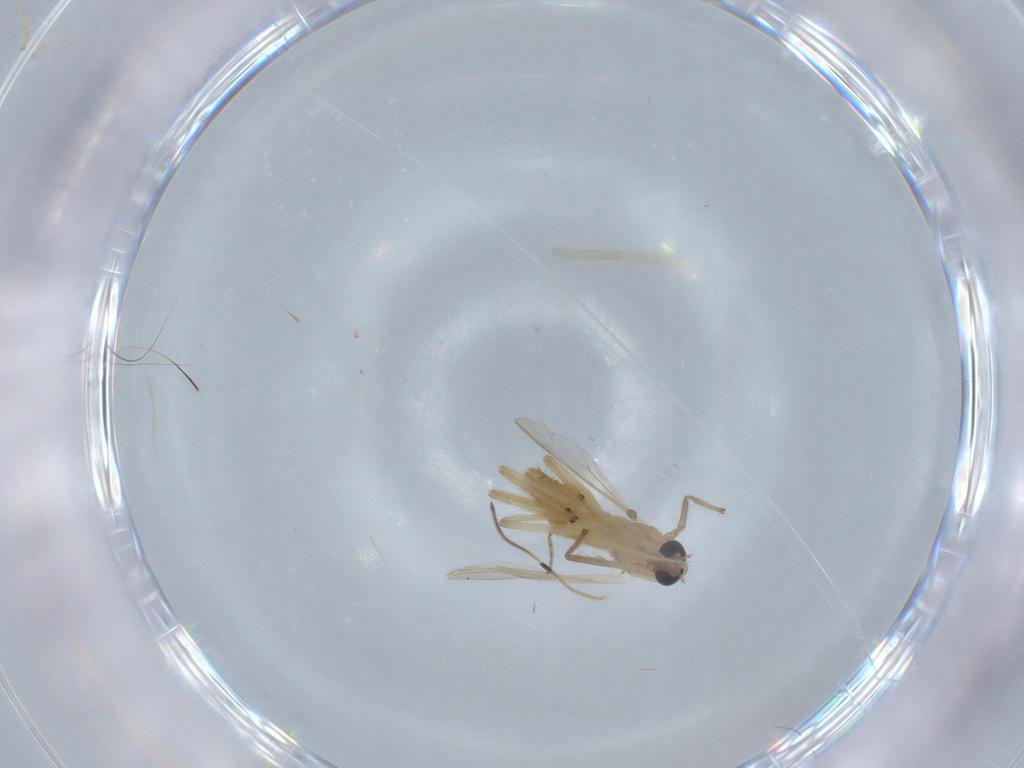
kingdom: Animalia
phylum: Arthropoda
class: Insecta
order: Diptera
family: Chironomidae
